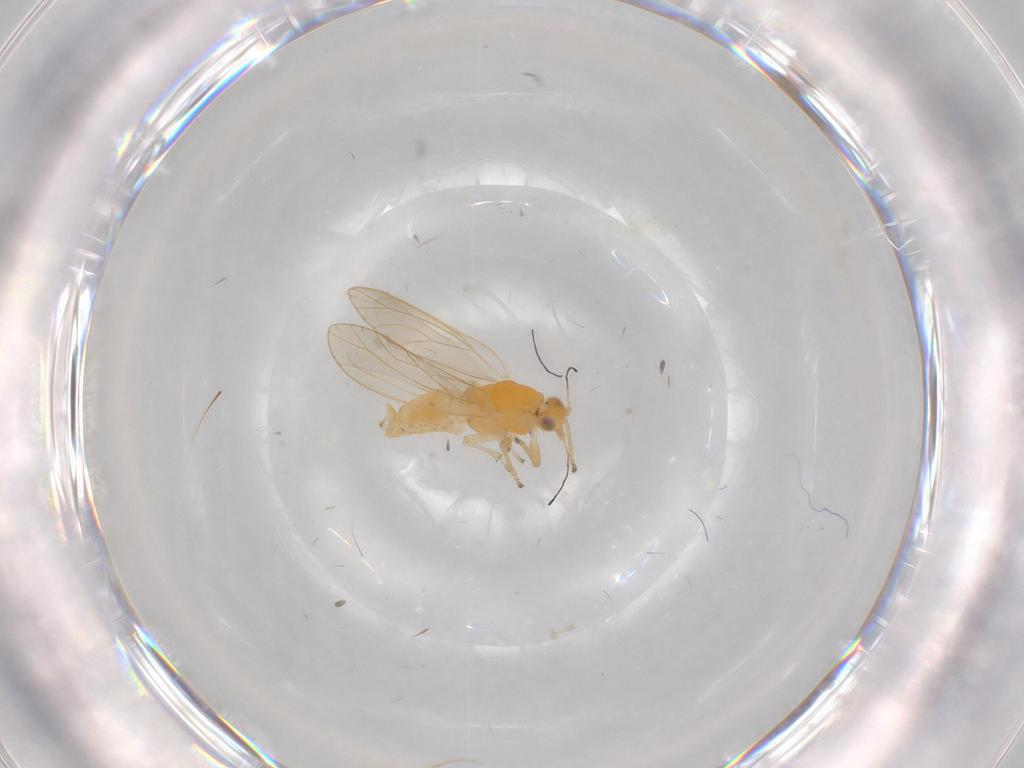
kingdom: Animalia
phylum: Arthropoda
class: Insecta
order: Hemiptera
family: Triozidae
